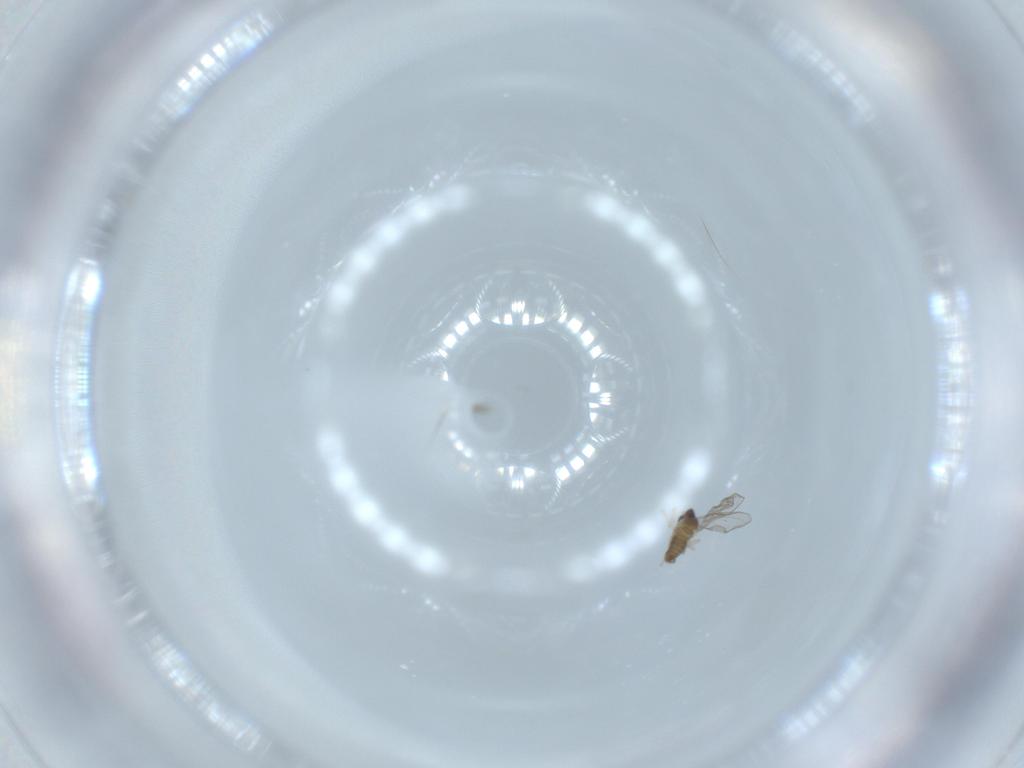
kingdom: Animalia
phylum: Arthropoda
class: Insecta
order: Diptera
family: Cecidomyiidae
